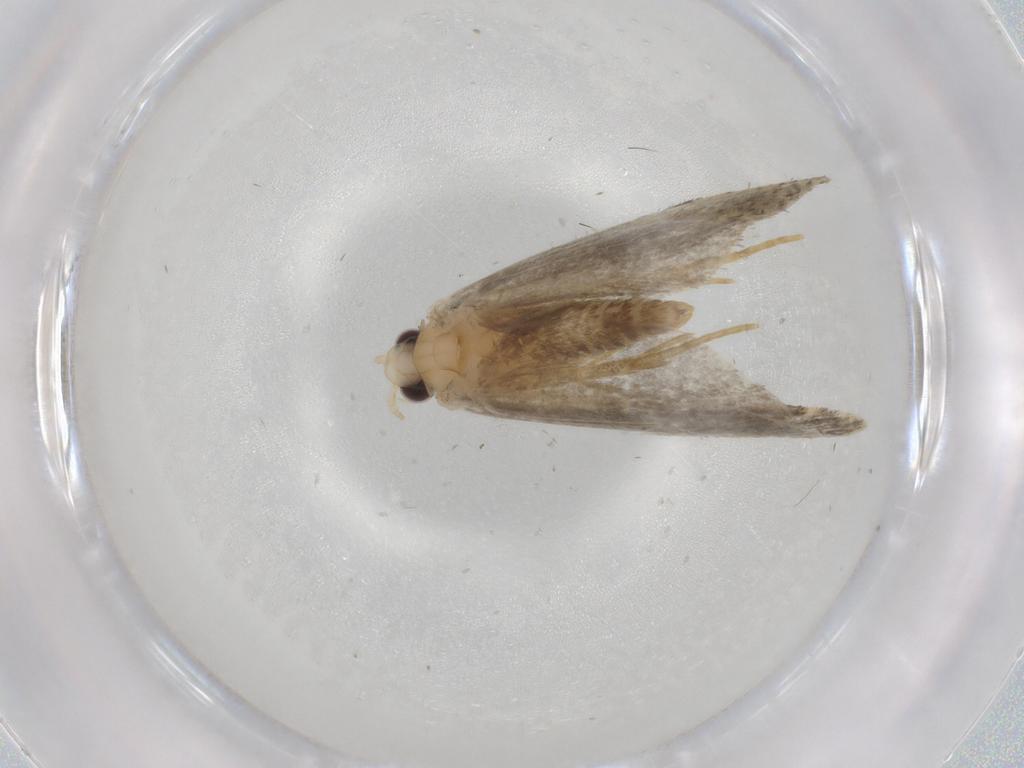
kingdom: Animalia
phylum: Arthropoda
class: Insecta
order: Lepidoptera
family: Psychidae
